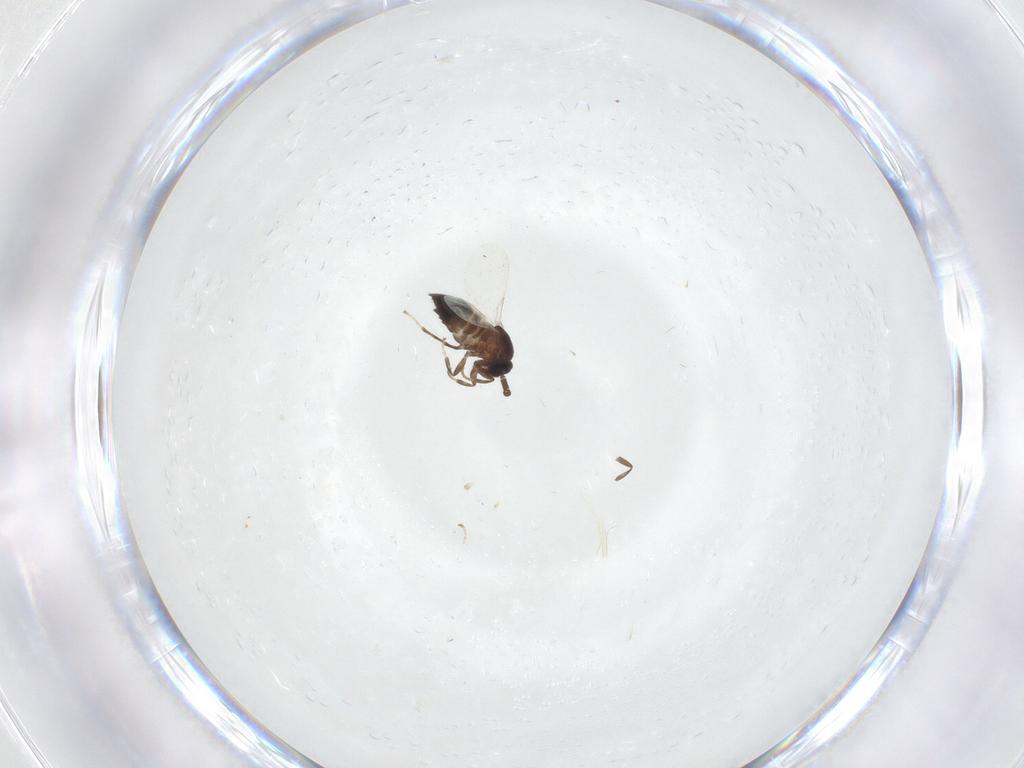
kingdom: Animalia
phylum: Arthropoda
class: Insecta
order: Diptera
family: Scatopsidae
